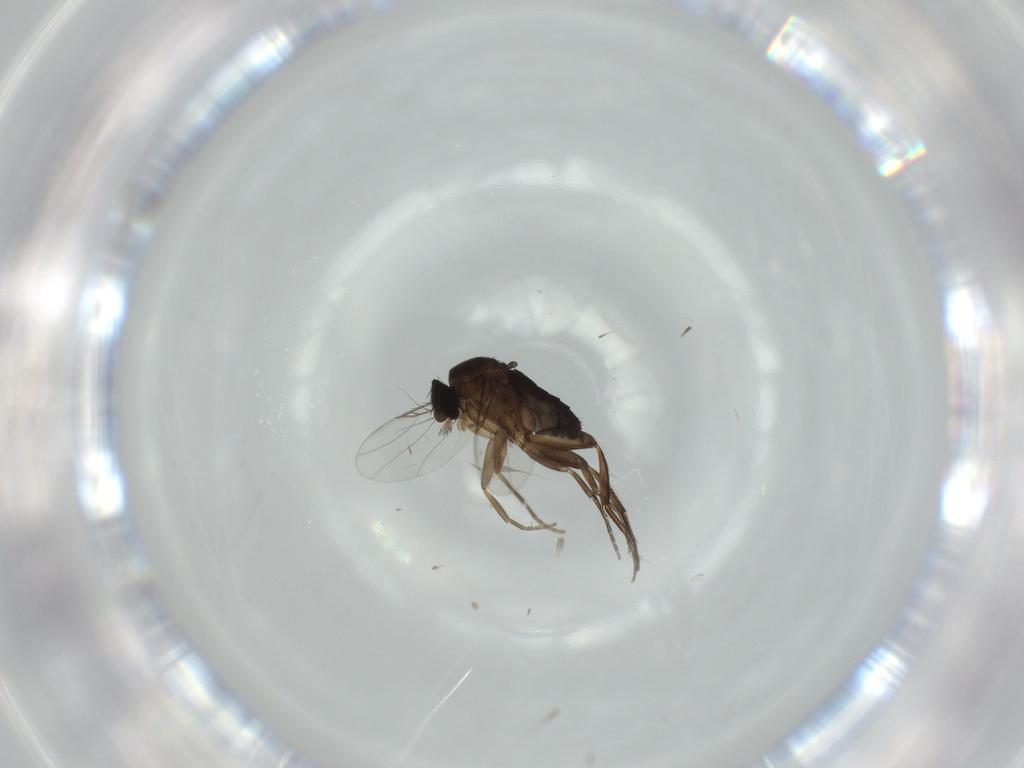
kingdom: Animalia
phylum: Arthropoda
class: Insecta
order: Diptera
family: Phoridae
